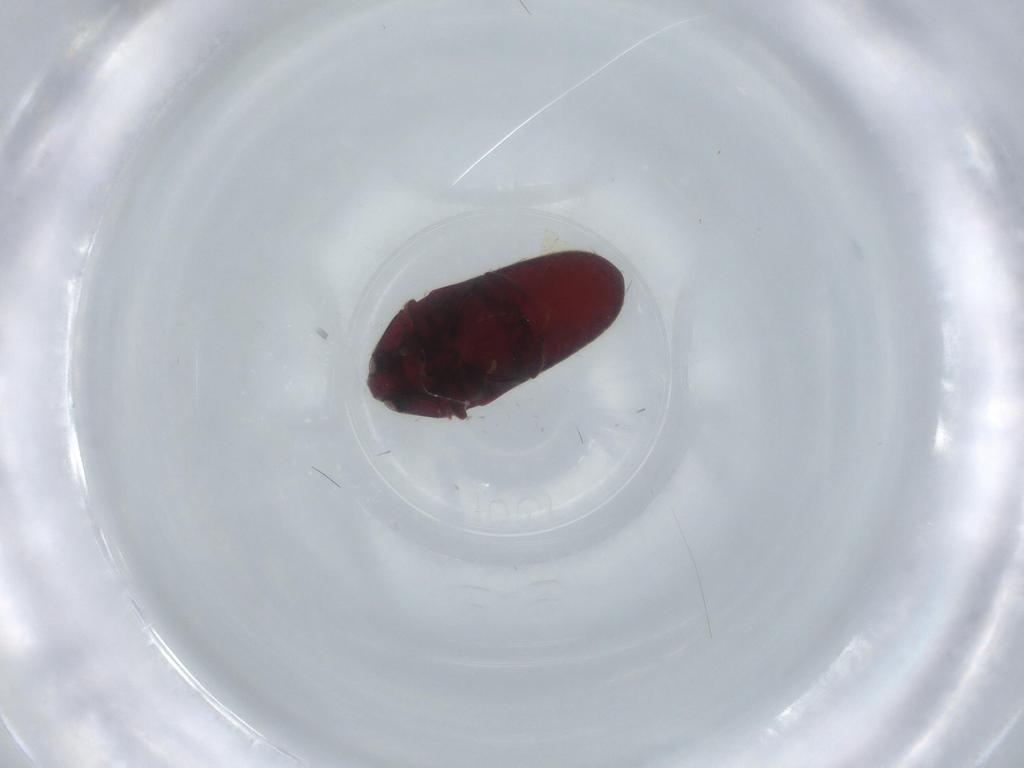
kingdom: Animalia
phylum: Arthropoda
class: Insecta
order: Coleoptera
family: Throscidae
